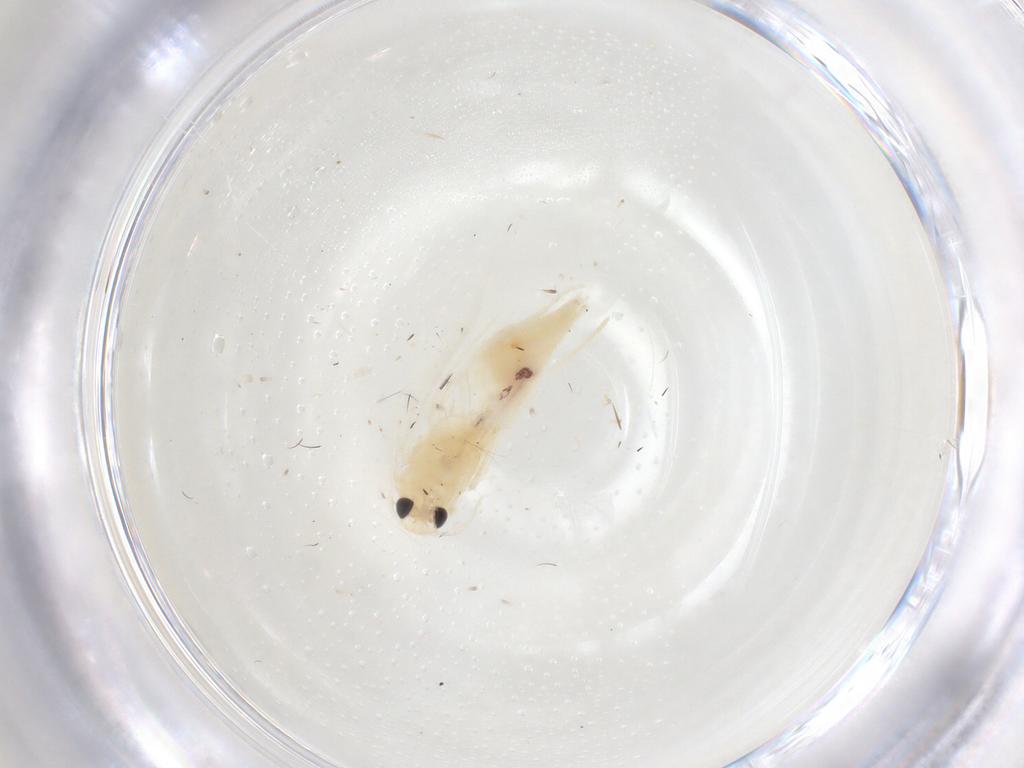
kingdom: Animalia
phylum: Arthropoda
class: Insecta
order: Lepidoptera
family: Gelechiidae
